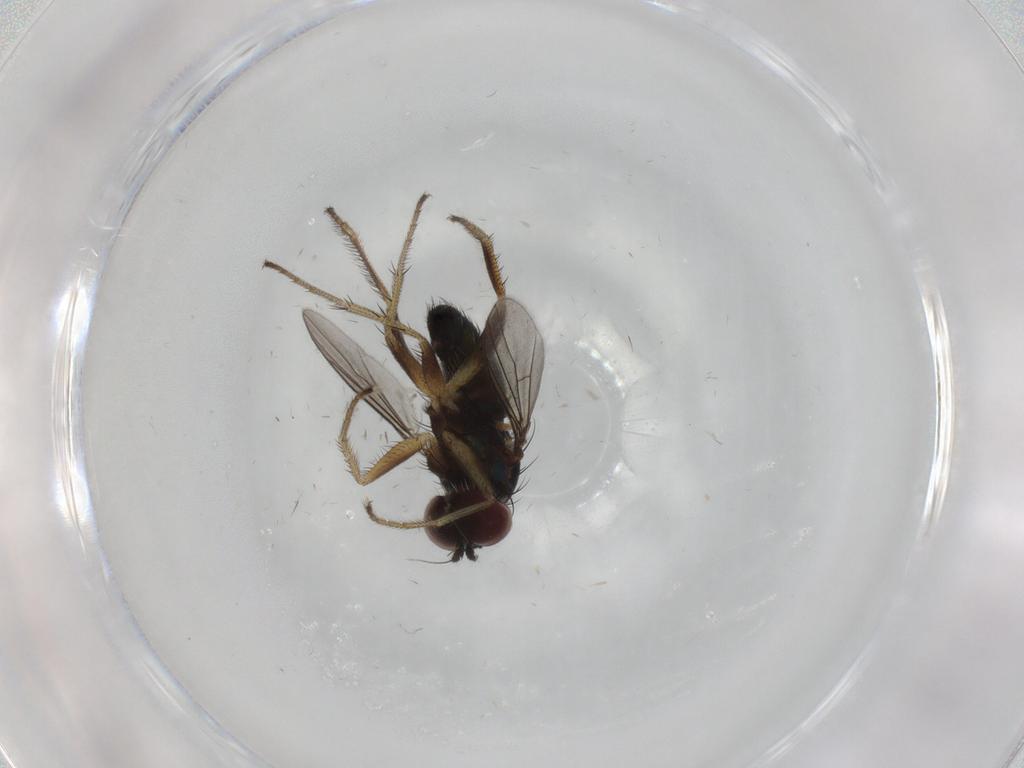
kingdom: Animalia
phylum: Arthropoda
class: Insecta
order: Diptera
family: Dolichopodidae
